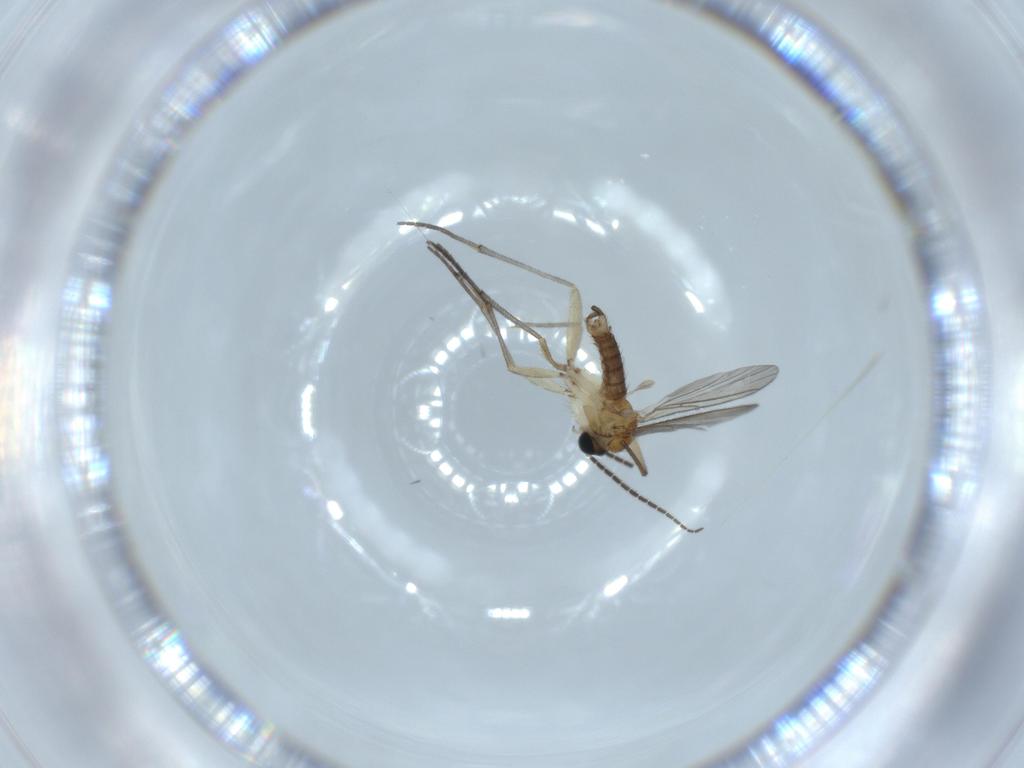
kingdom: Animalia
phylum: Arthropoda
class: Insecta
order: Diptera
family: Sciaridae
